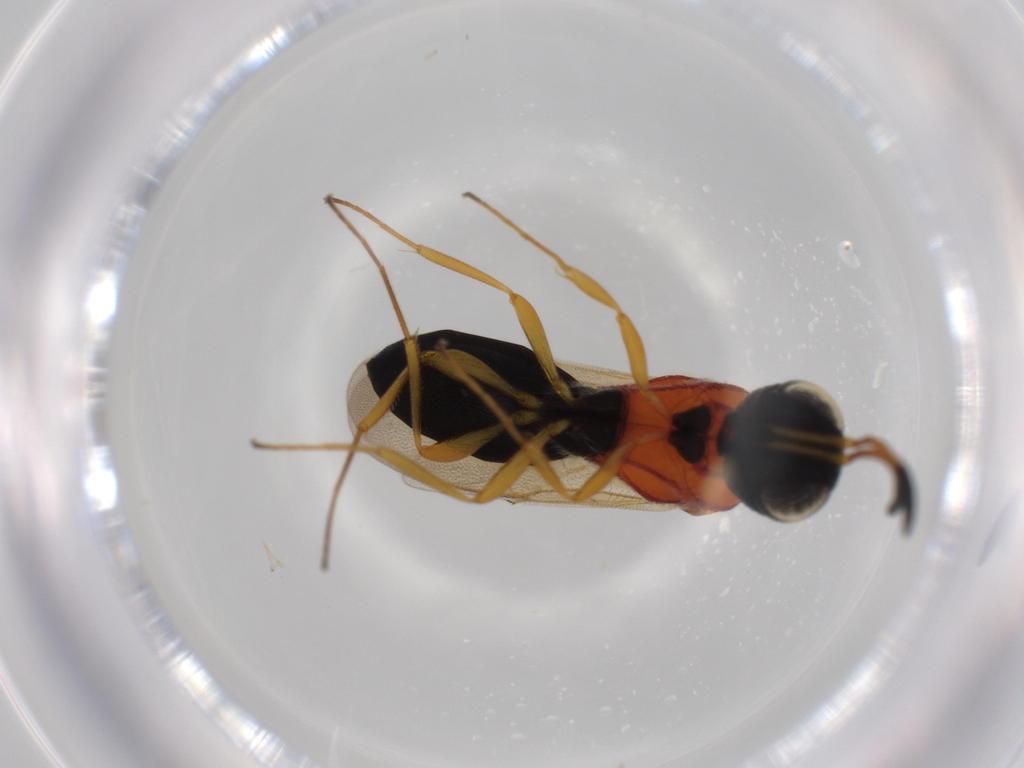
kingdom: Animalia
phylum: Arthropoda
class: Insecta
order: Hymenoptera
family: Scelionidae
